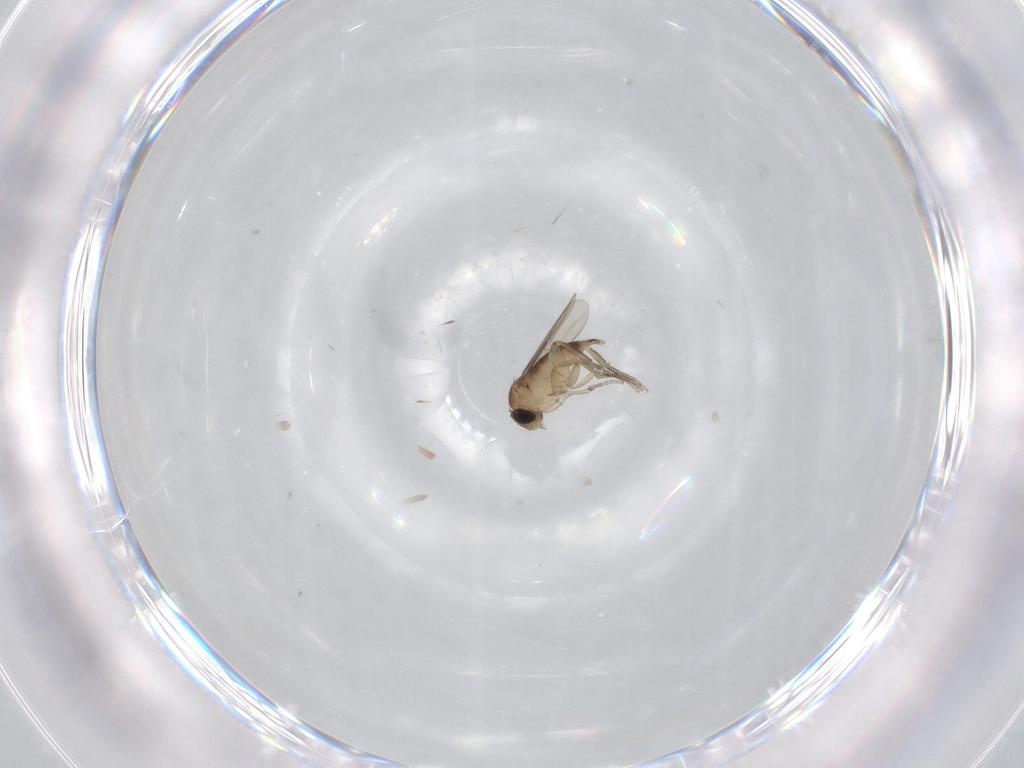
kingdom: Animalia
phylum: Arthropoda
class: Insecta
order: Diptera
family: Phoridae
